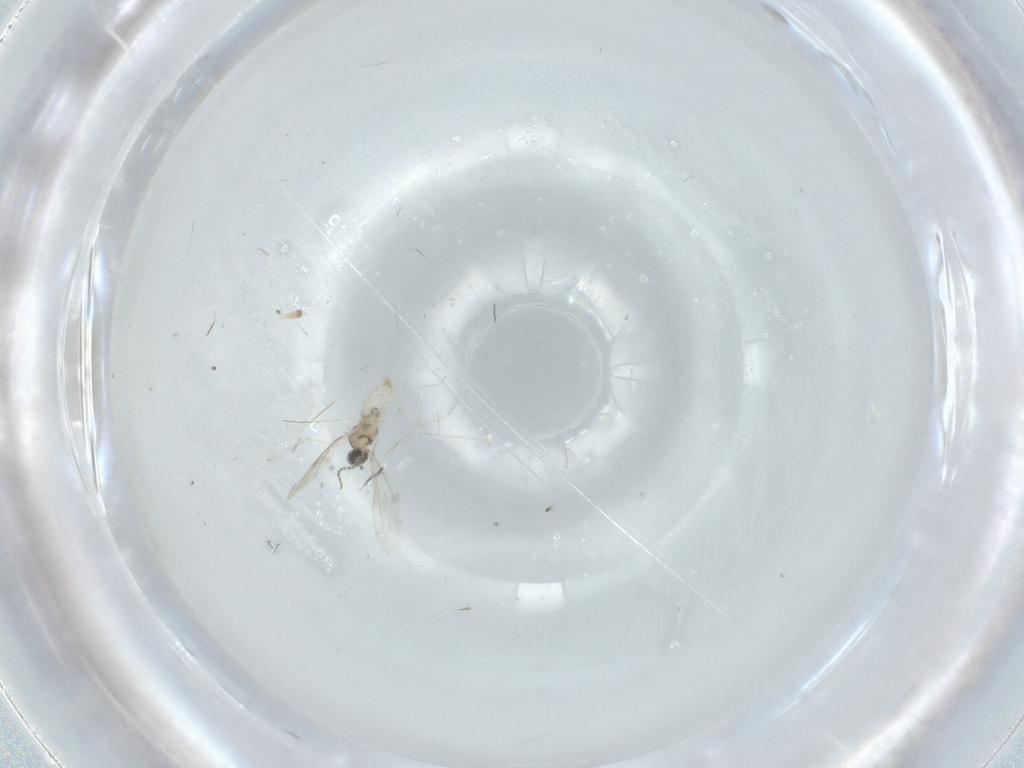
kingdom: Animalia
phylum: Arthropoda
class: Insecta
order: Diptera
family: Cecidomyiidae
